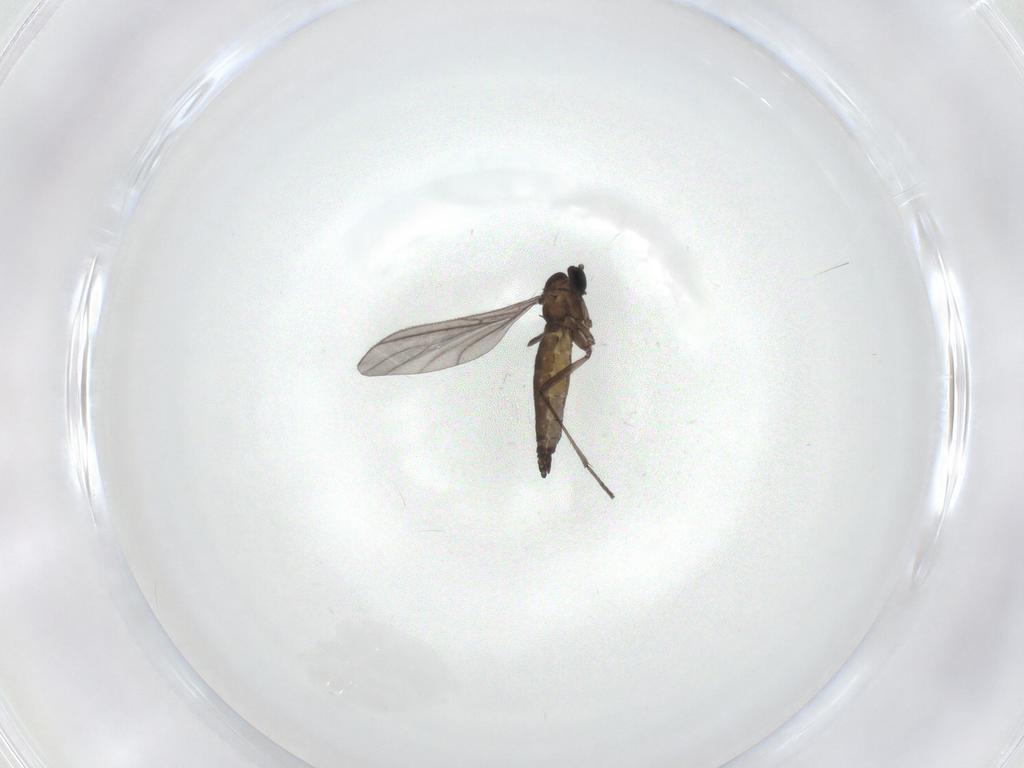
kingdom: Animalia
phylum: Arthropoda
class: Insecta
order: Diptera
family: Sciaridae
